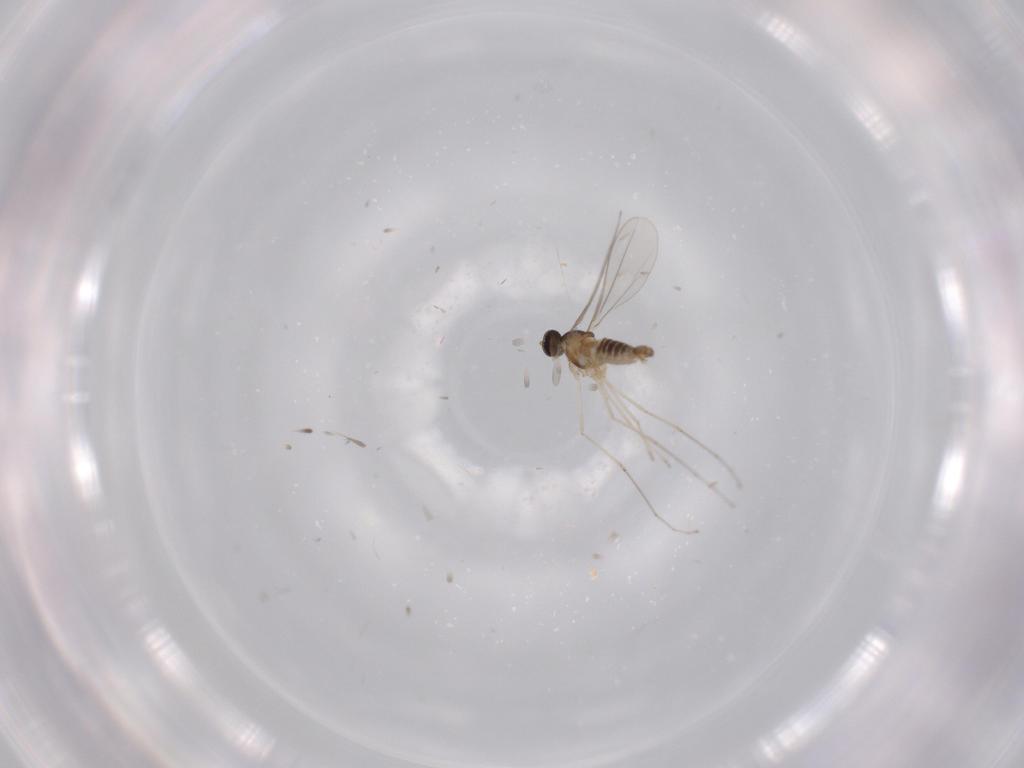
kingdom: Animalia
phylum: Arthropoda
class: Insecta
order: Diptera
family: Cecidomyiidae
